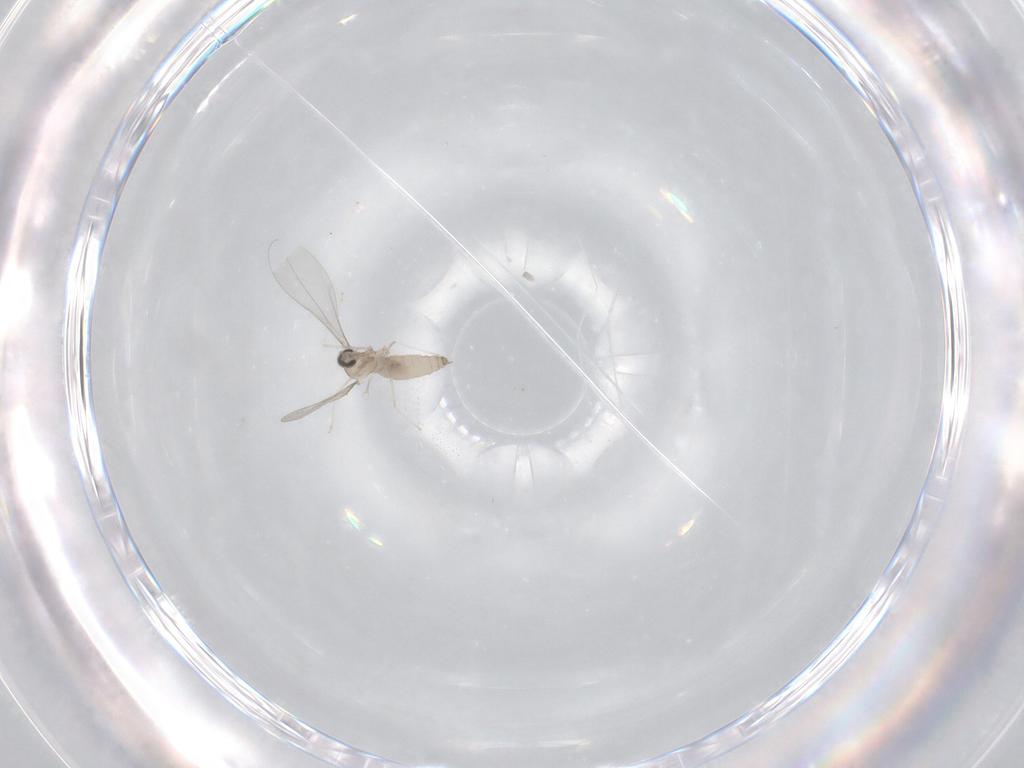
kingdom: Animalia
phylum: Arthropoda
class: Insecta
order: Diptera
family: Cecidomyiidae
